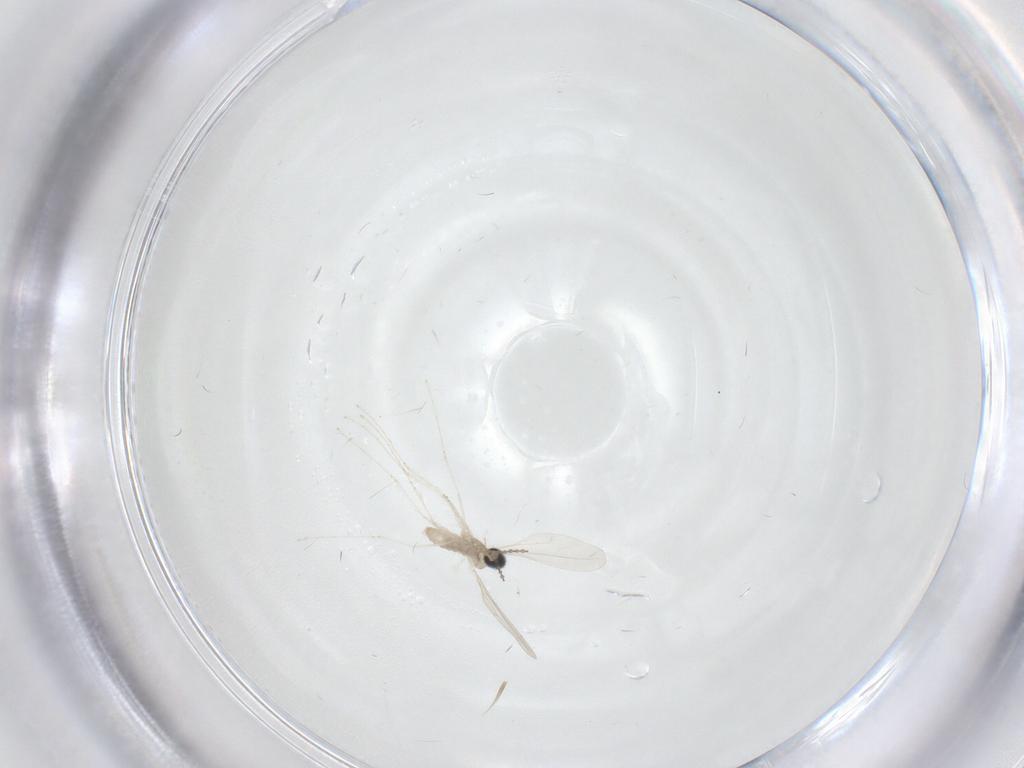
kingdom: Animalia
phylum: Arthropoda
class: Insecta
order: Diptera
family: Cecidomyiidae
